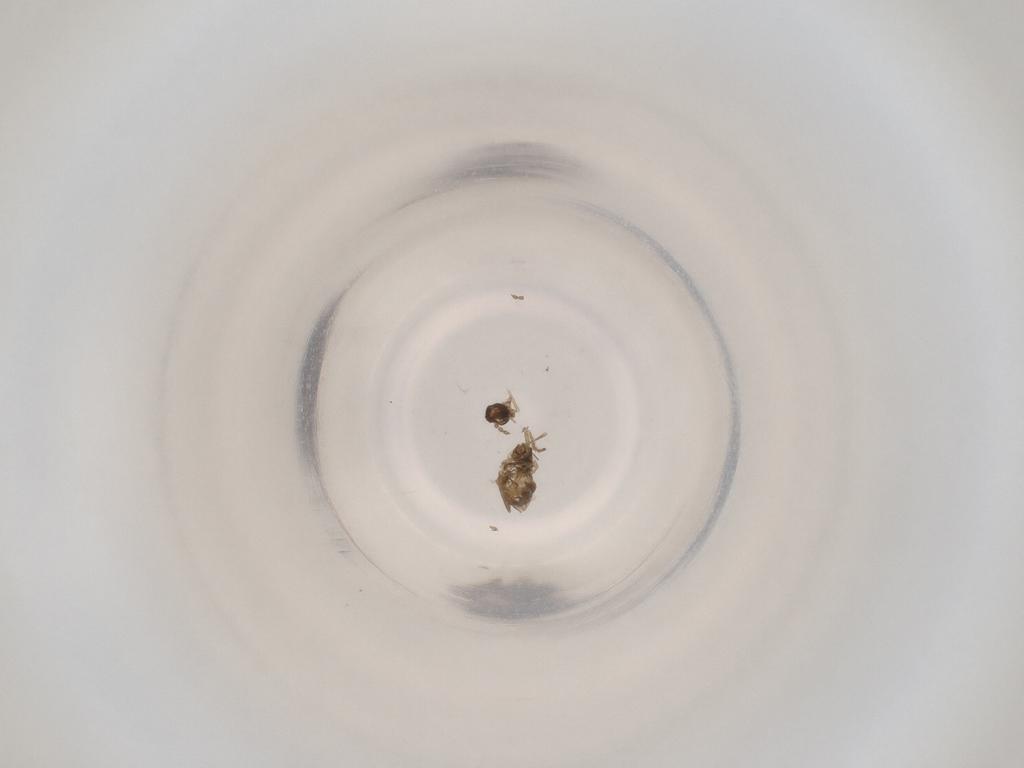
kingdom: Animalia
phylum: Arthropoda
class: Insecta
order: Diptera
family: Cecidomyiidae
